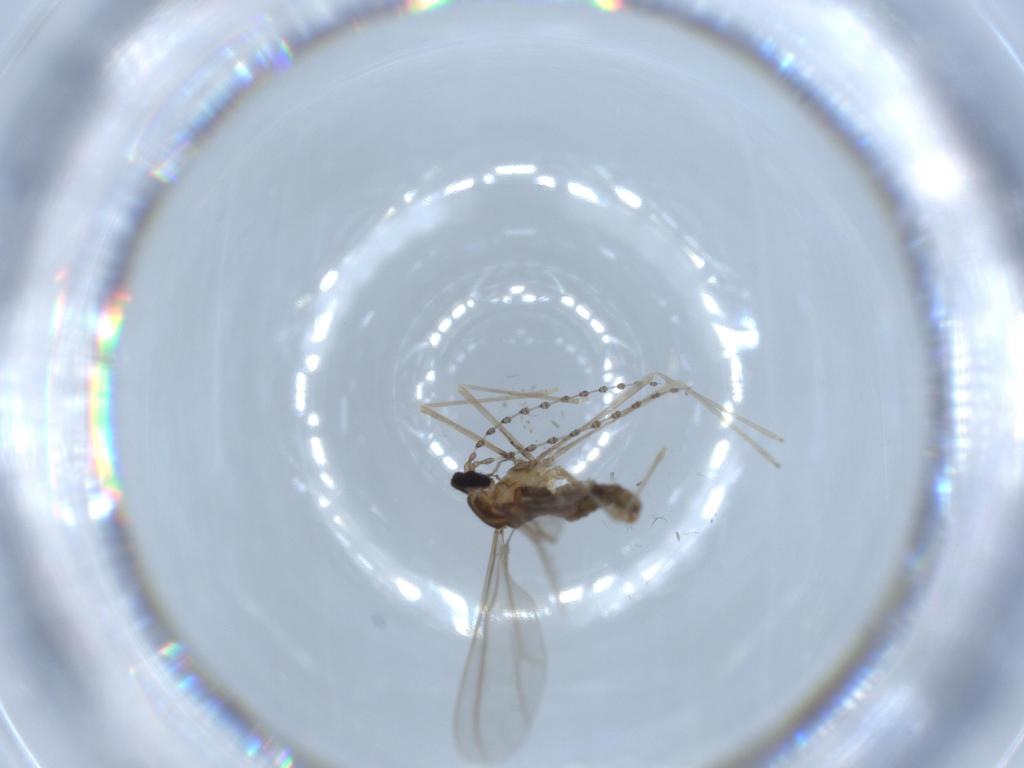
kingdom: Animalia
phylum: Arthropoda
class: Insecta
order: Diptera
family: Cecidomyiidae
